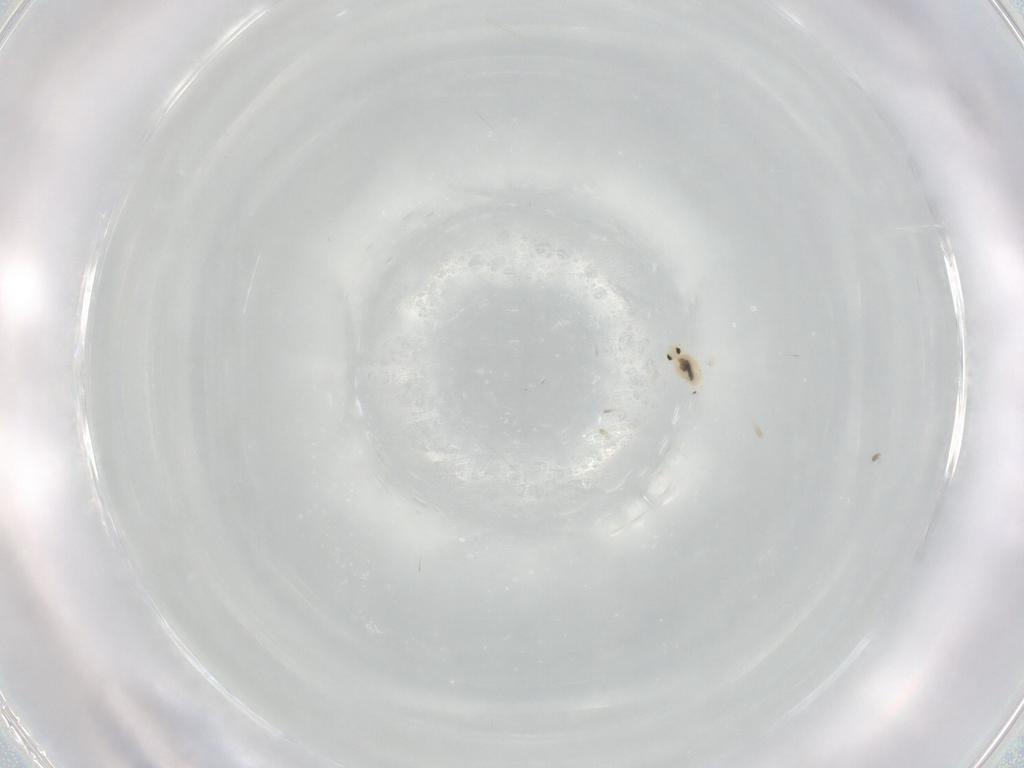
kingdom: Animalia
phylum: Arthropoda
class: Collembola
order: Symphypleona
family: Bourletiellidae
